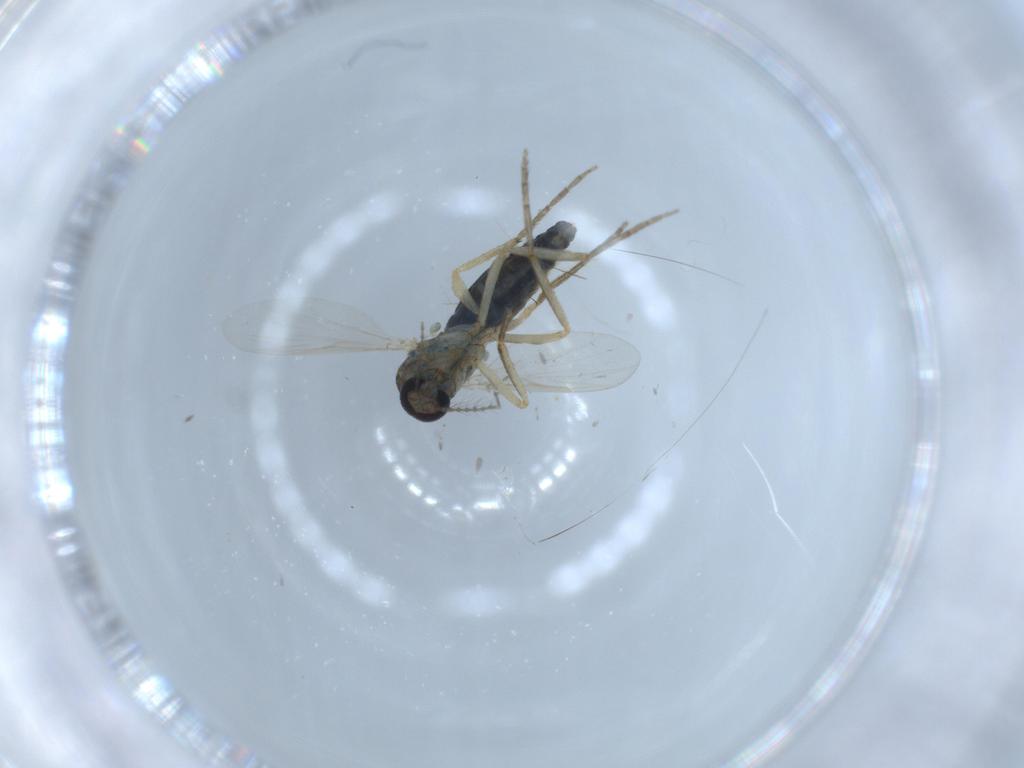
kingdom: Animalia
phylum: Arthropoda
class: Insecta
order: Diptera
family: Ceratopogonidae
